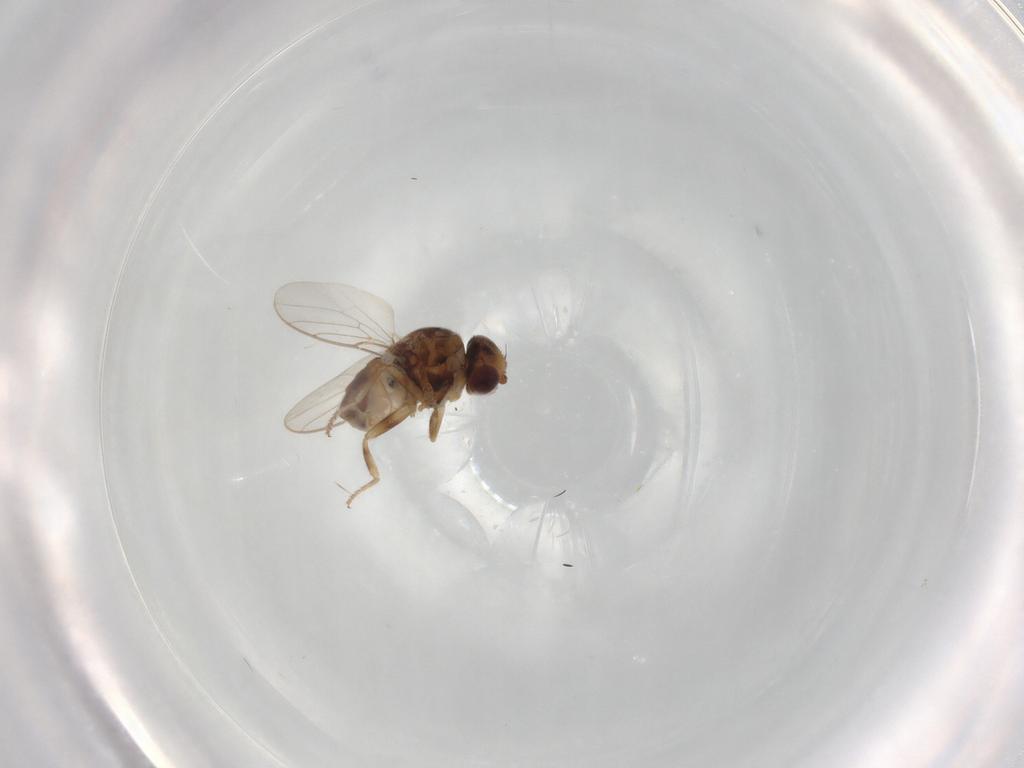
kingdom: Animalia
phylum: Arthropoda
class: Insecta
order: Diptera
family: Chloropidae
